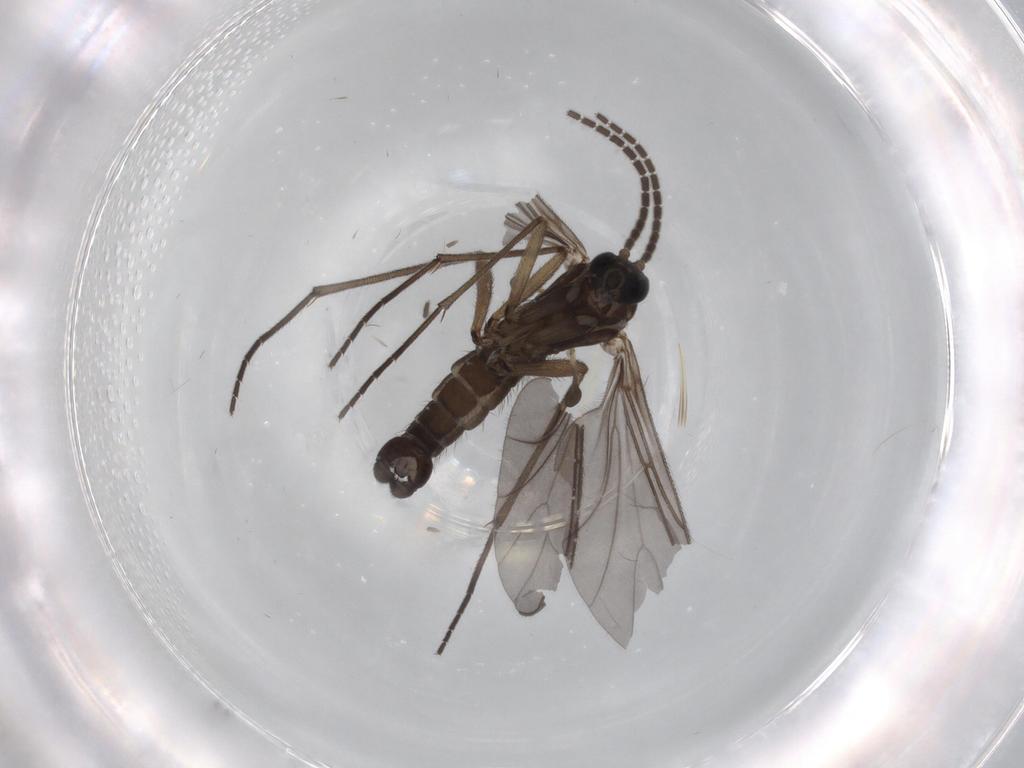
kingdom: Animalia
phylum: Arthropoda
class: Insecta
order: Diptera
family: Sciaridae
